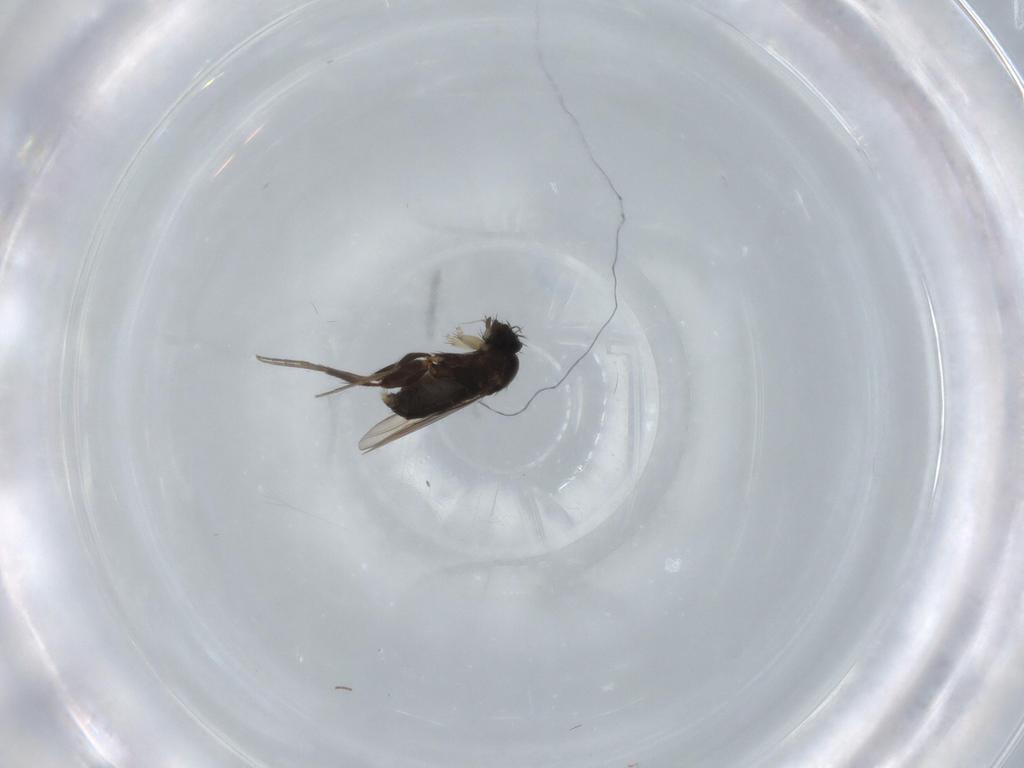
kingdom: Animalia
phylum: Arthropoda
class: Insecta
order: Diptera
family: Phoridae
